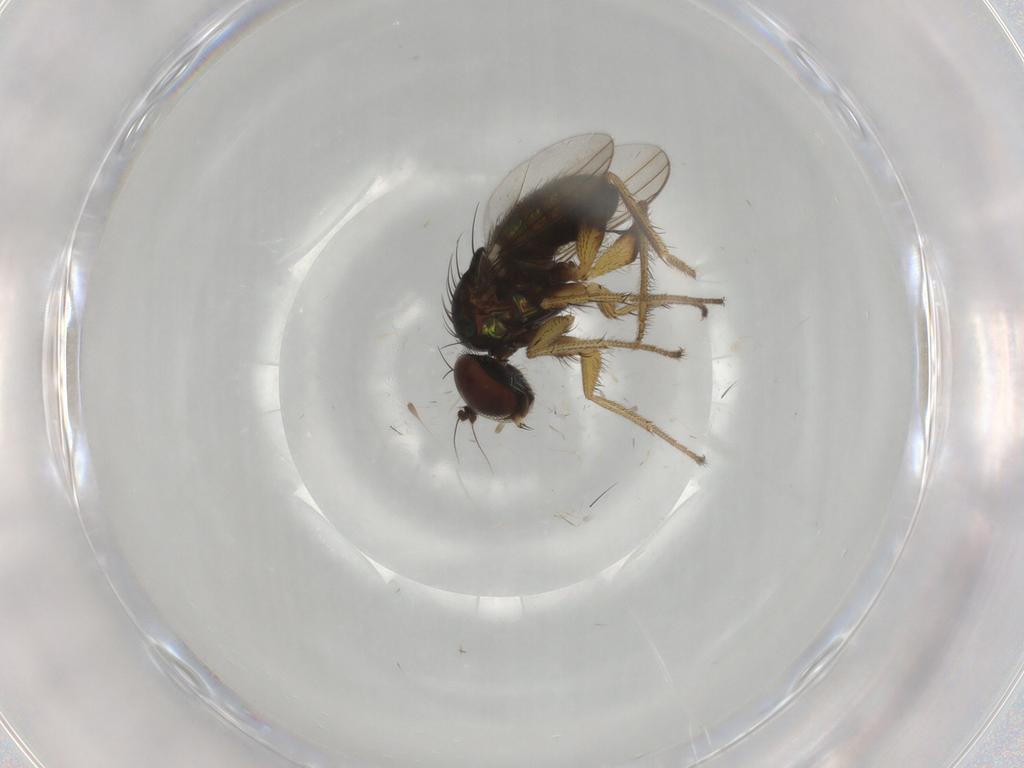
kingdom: Animalia
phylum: Arthropoda
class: Insecta
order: Diptera
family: Dolichopodidae
